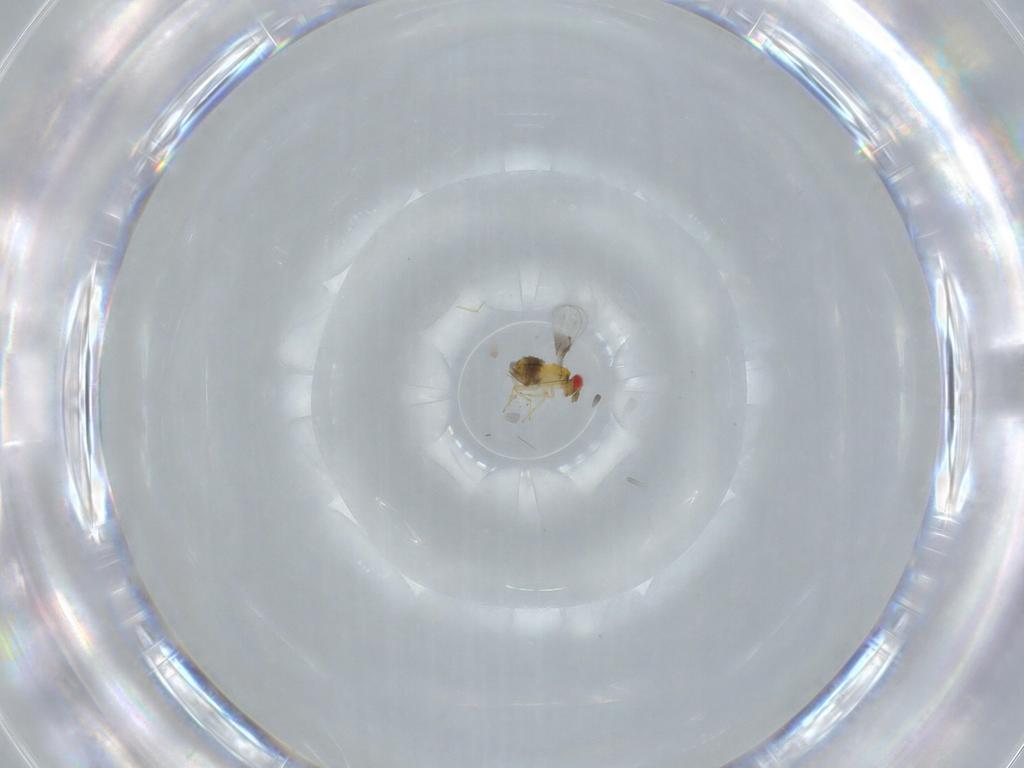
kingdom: Animalia
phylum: Arthropoda
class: Insecta
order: Hymenoptera
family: Trichogrammatidae
